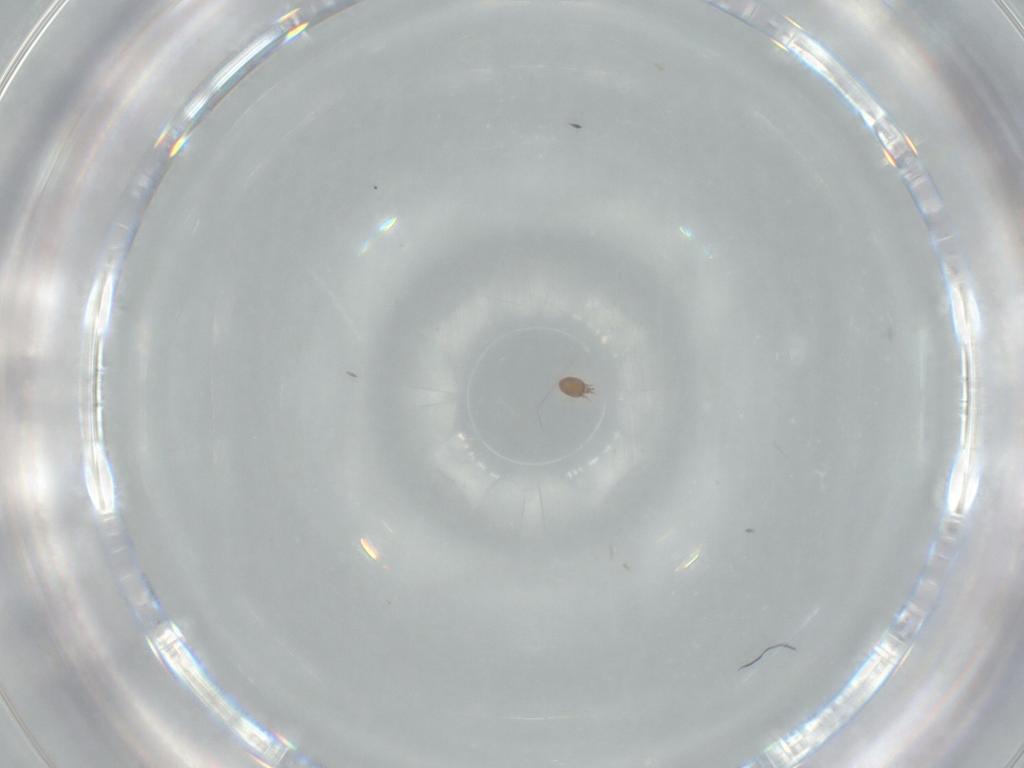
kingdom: Animalia
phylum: Arthropoda
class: Arachnida
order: Sarcoptiformes
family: Acaridae
